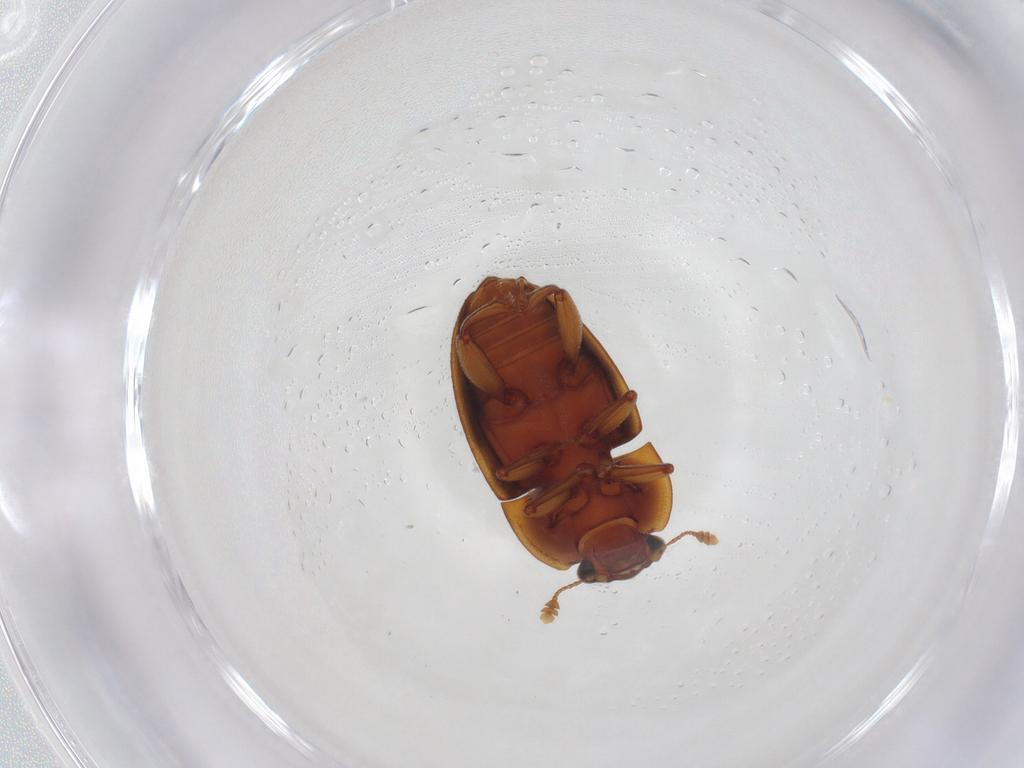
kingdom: Animalia
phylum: Arthropoda
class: Insecta
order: Coleoptera
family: Nitidulidae
